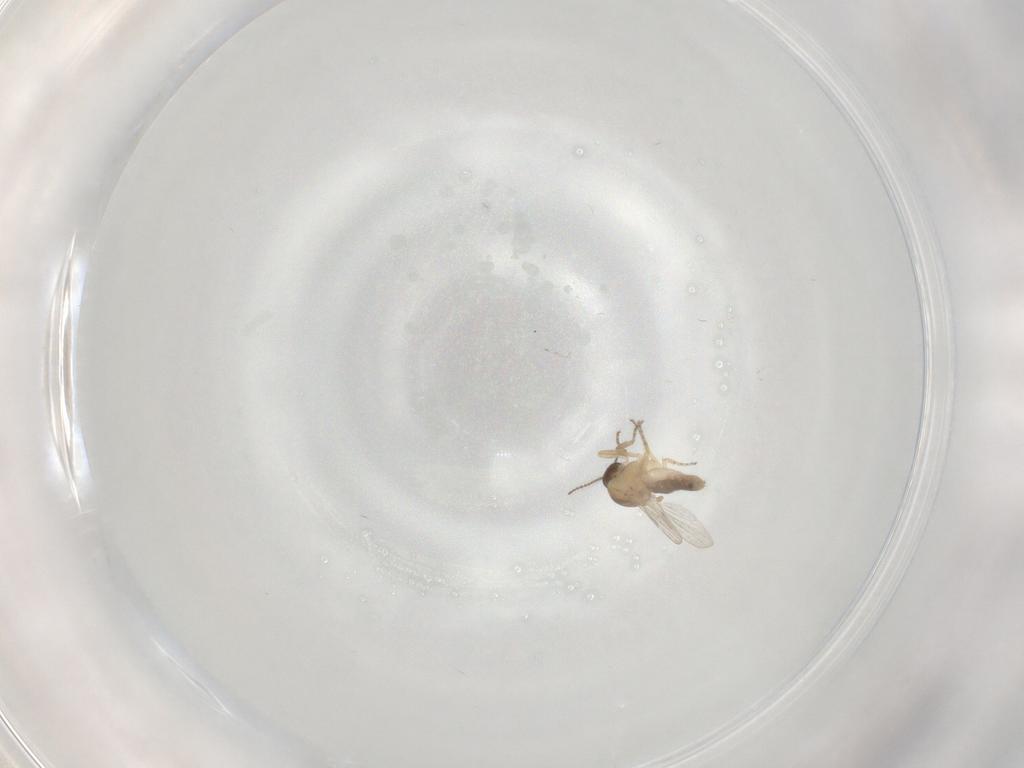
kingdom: Animalia
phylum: Arthropoda
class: Insecta
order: Diptera
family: Ceratopogonidae
